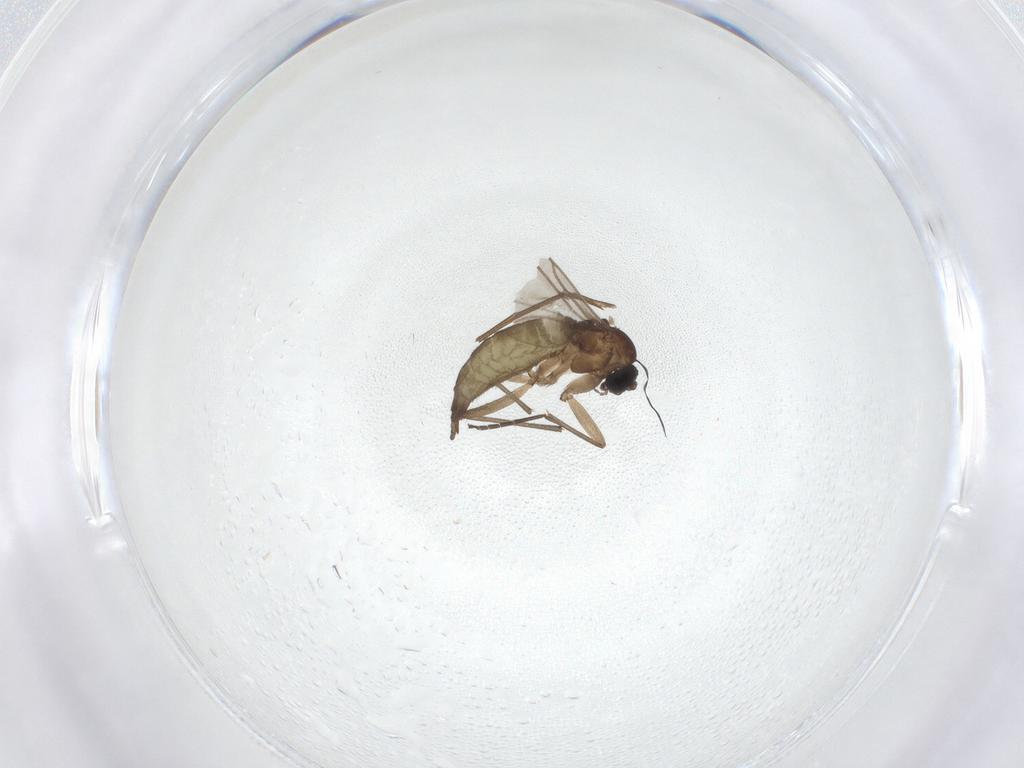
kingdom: Animalia
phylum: Arthropoda
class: Insecta
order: Diptera
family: Sciaridae
